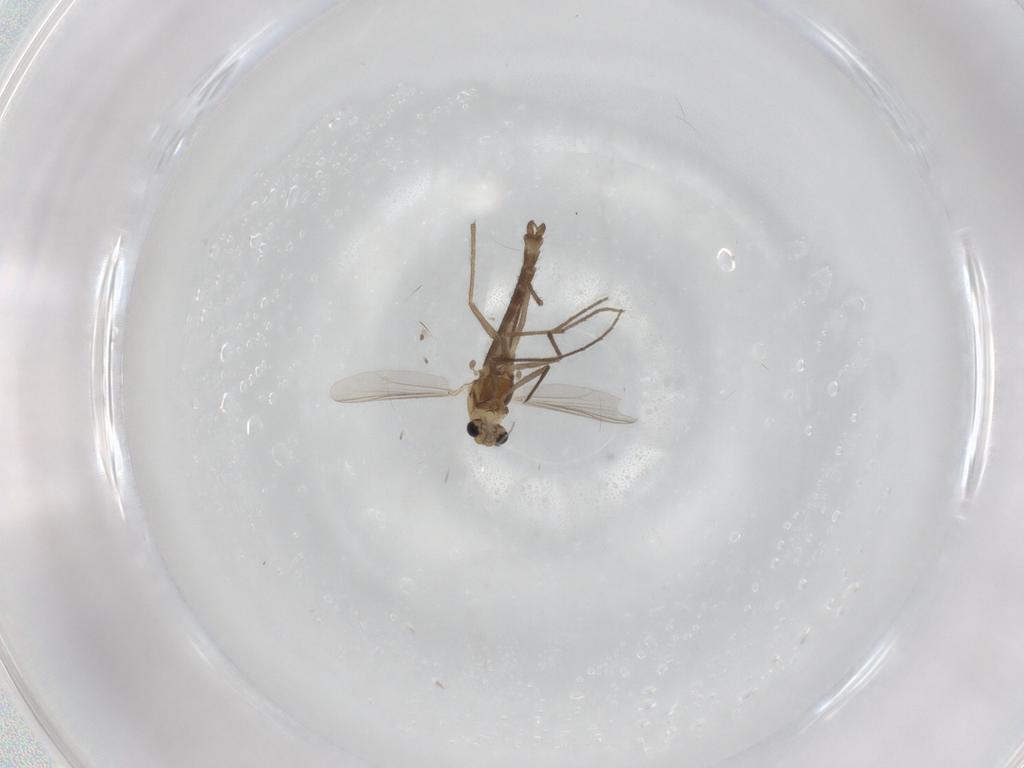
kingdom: Animalia
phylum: Arthropoda
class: Insecta
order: Diptera
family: Chironomidae
